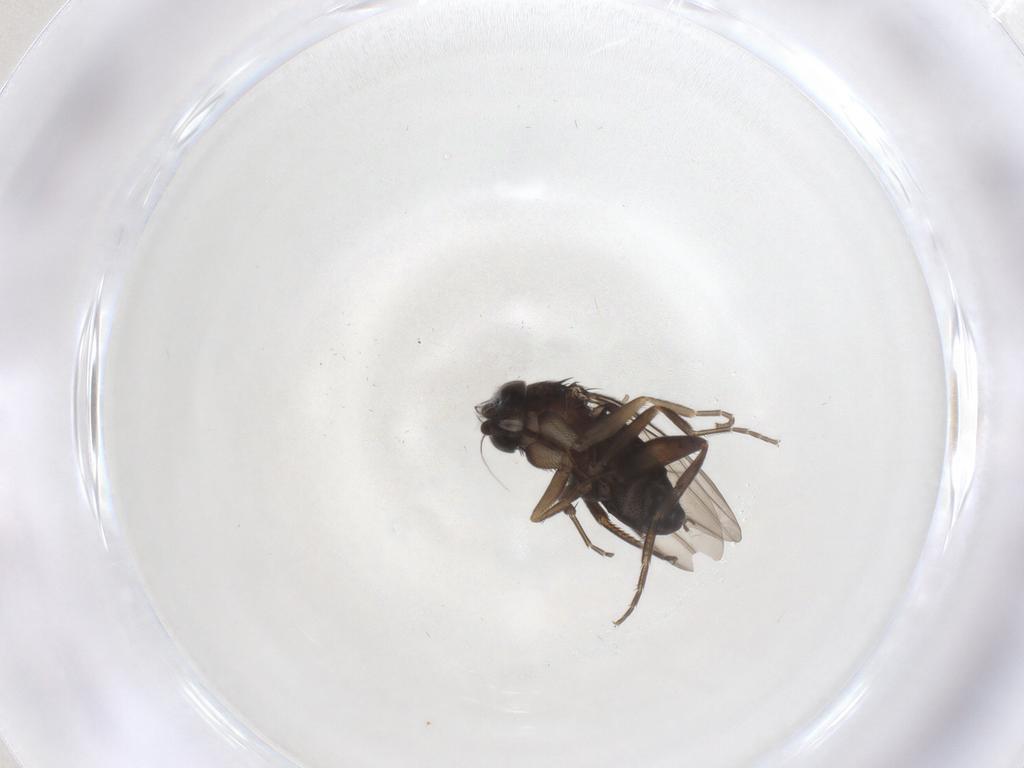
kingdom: Animalia
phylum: Arthropoda
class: Insecta
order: Diptera
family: Phoridae
